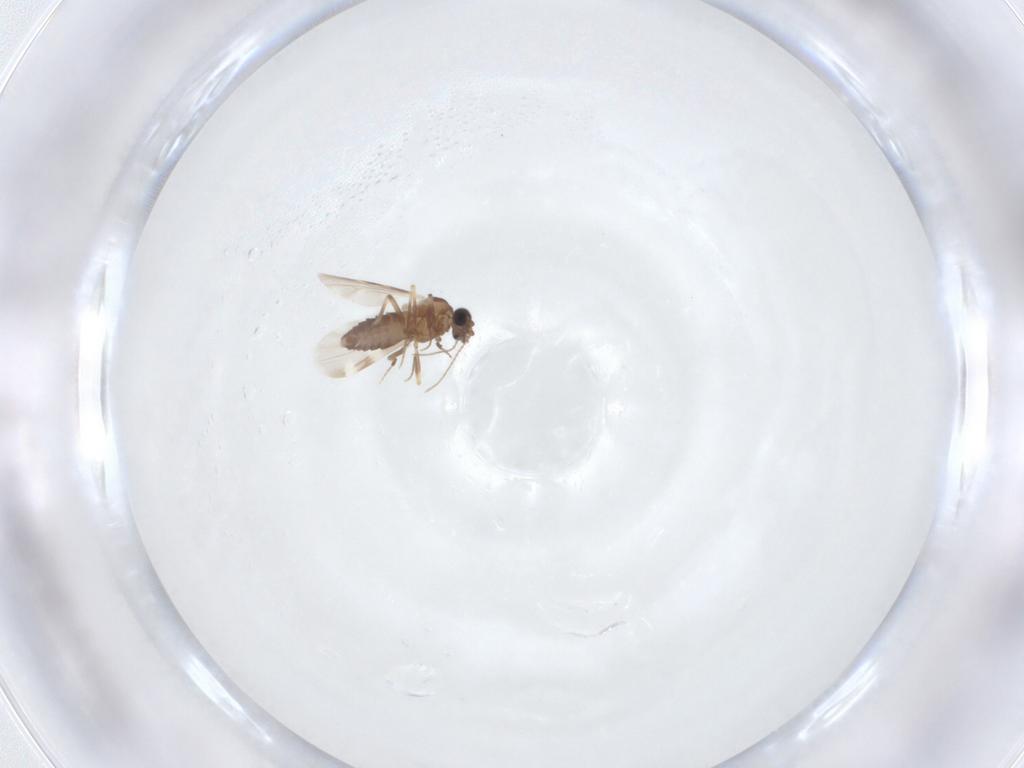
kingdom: Animalia
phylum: Arthropoda
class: Insecta
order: Diptera
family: Ceratopogonidae
